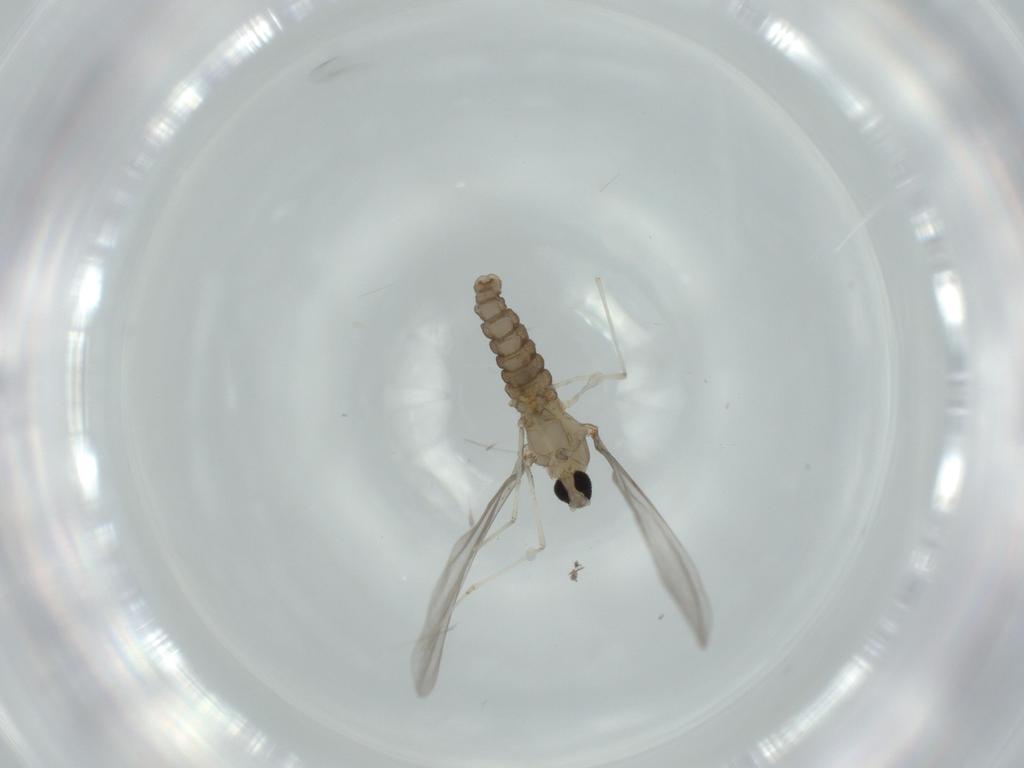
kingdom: Animalia
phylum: Arthropoda
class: Insecta
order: Diptera
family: Cecidomyiidae
